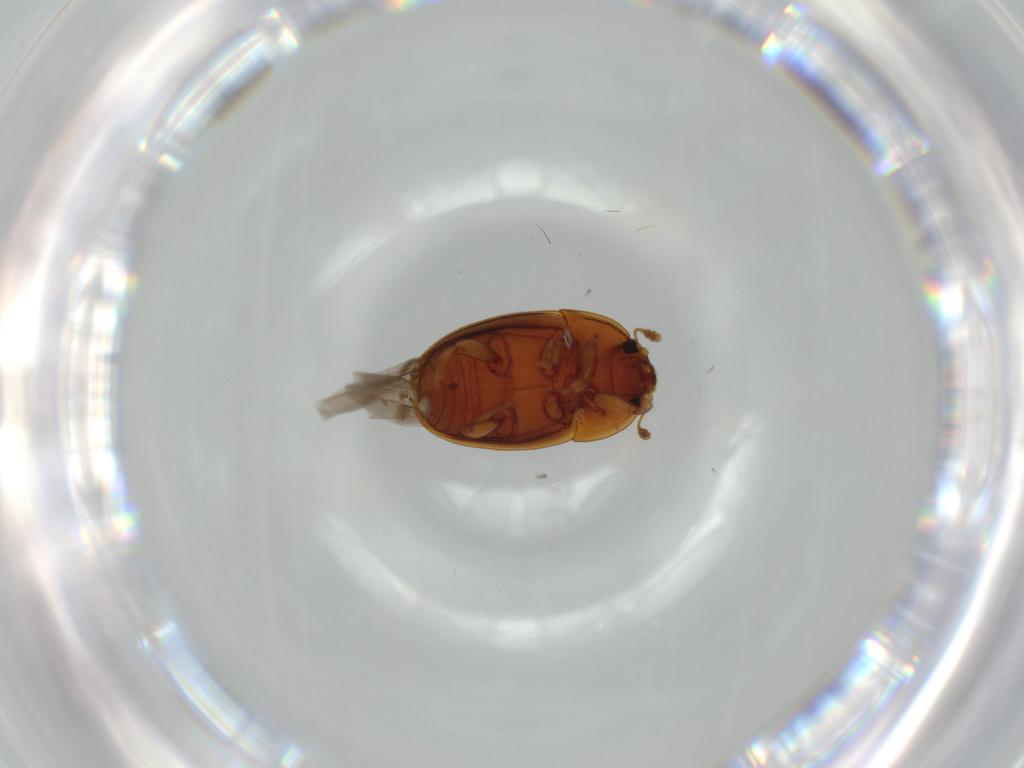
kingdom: Animalia
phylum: Arthropoda
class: Insecta
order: Coleoptera
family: Nitidulidae
